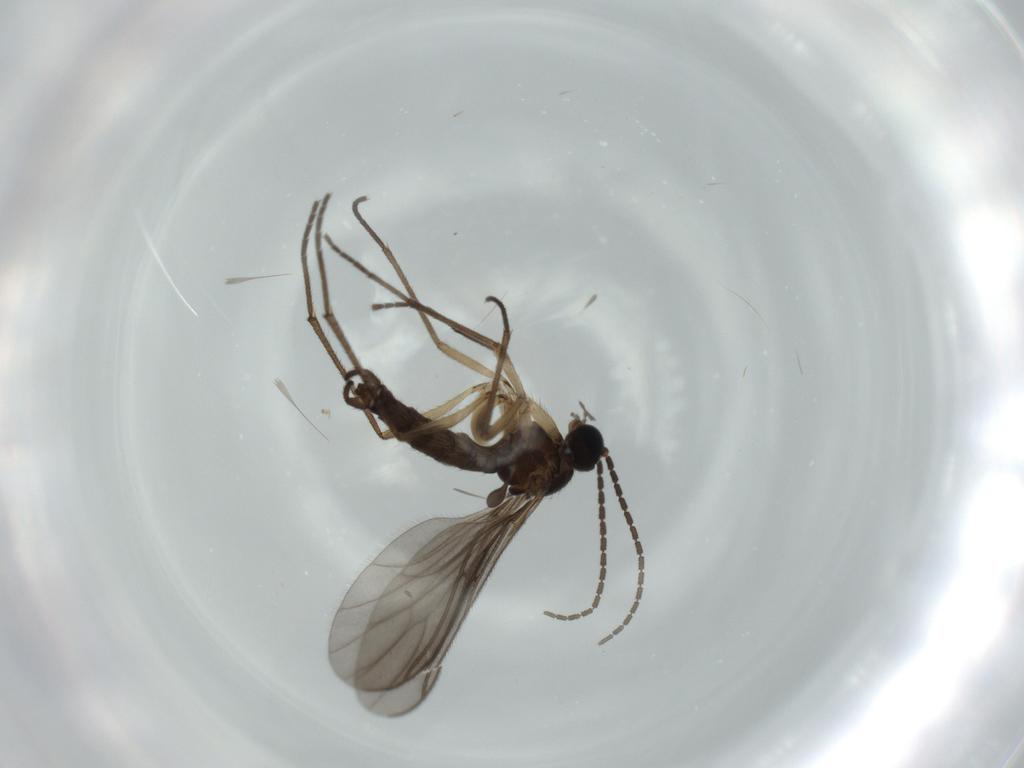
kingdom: Animalia
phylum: Arthropoda
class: Insecta
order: Diptera
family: Sciaridae
